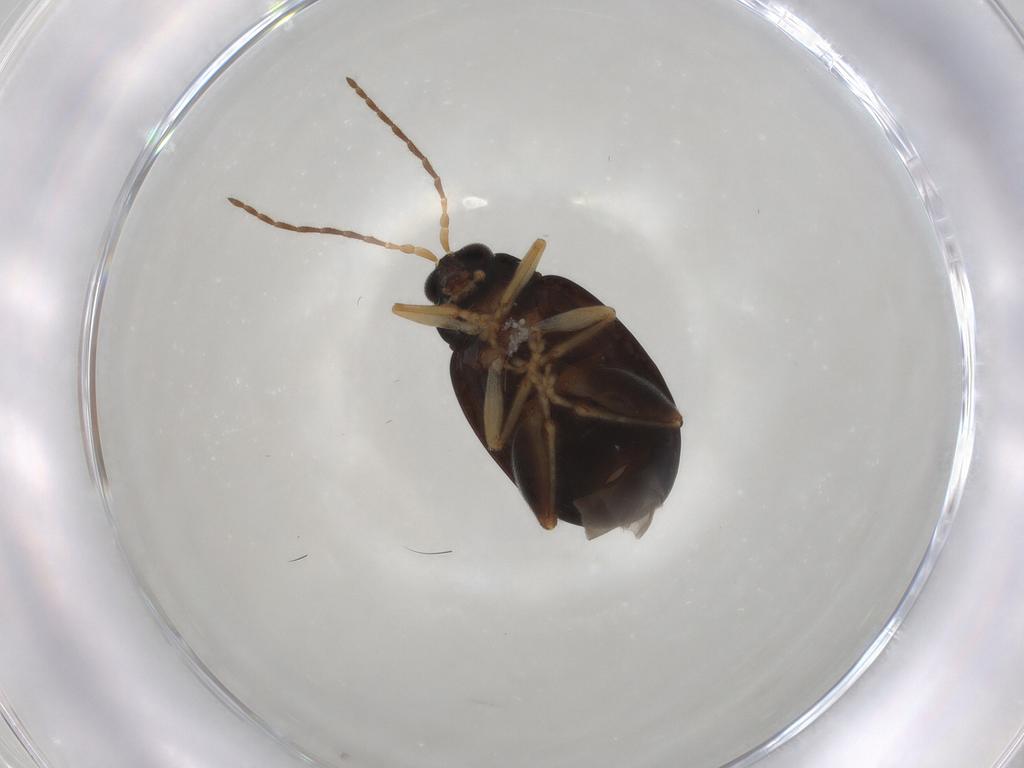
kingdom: Animalia
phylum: Arthropoda
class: Insecta
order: Coleoptera
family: Chrysomelidae
